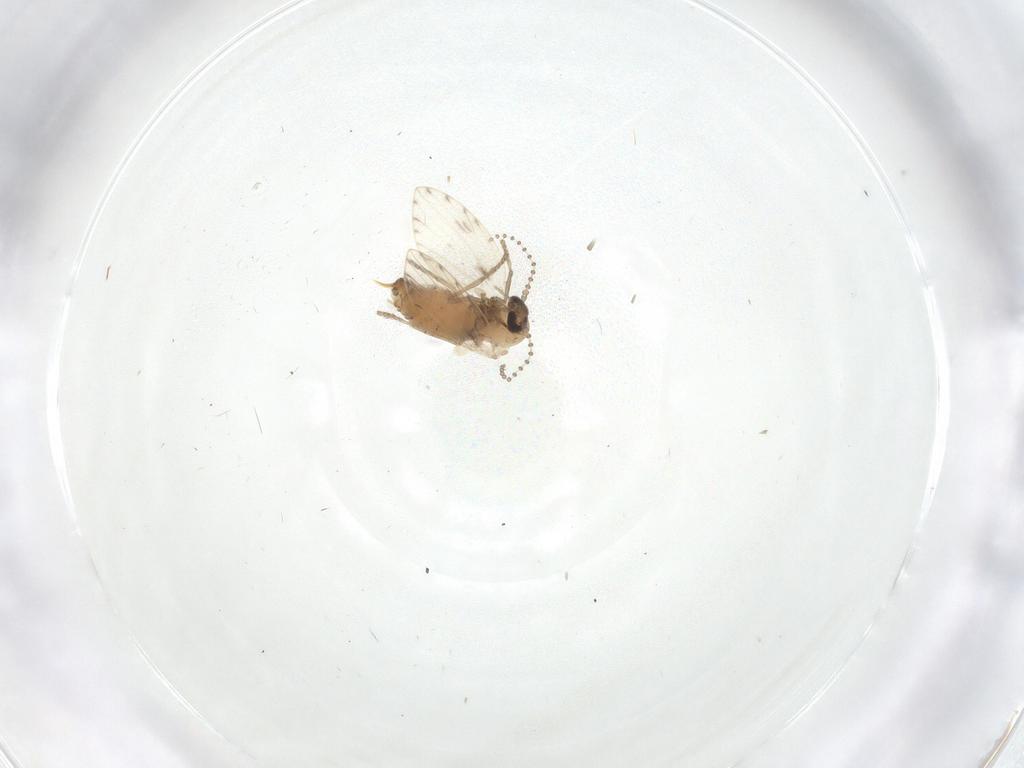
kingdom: Animalia
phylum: Arthropoda
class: Insecta
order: Diptera
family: Psychodidae
